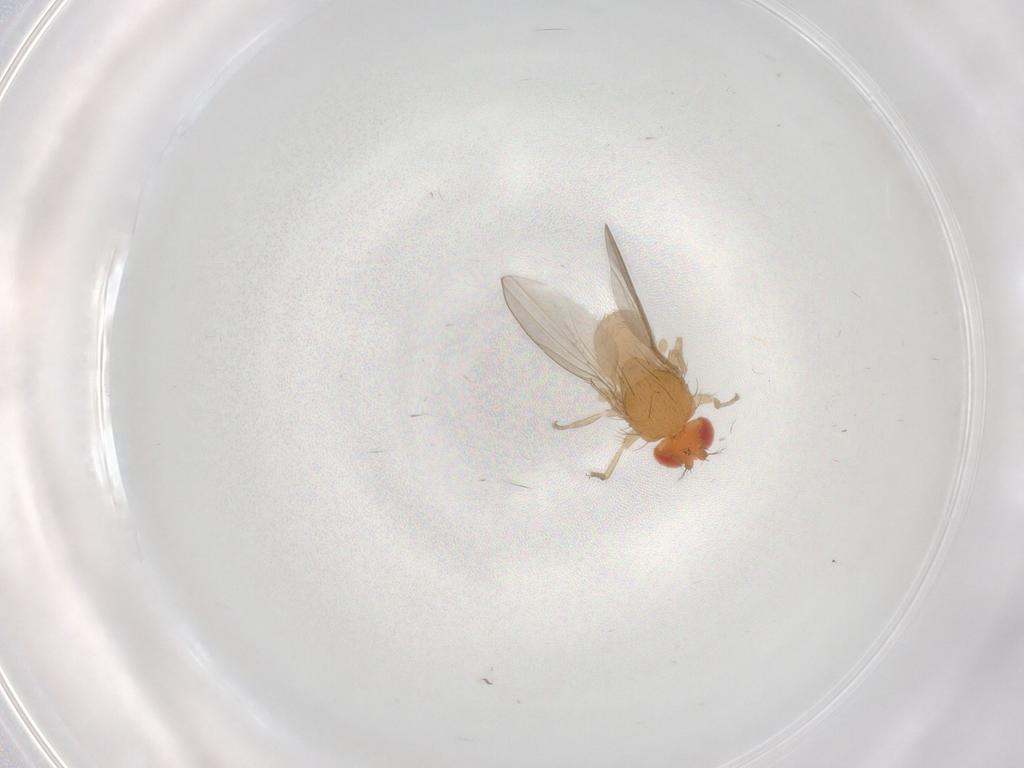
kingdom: Animalia
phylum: Arthropoda
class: Insecta
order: Diptera
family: Drosophilidae
